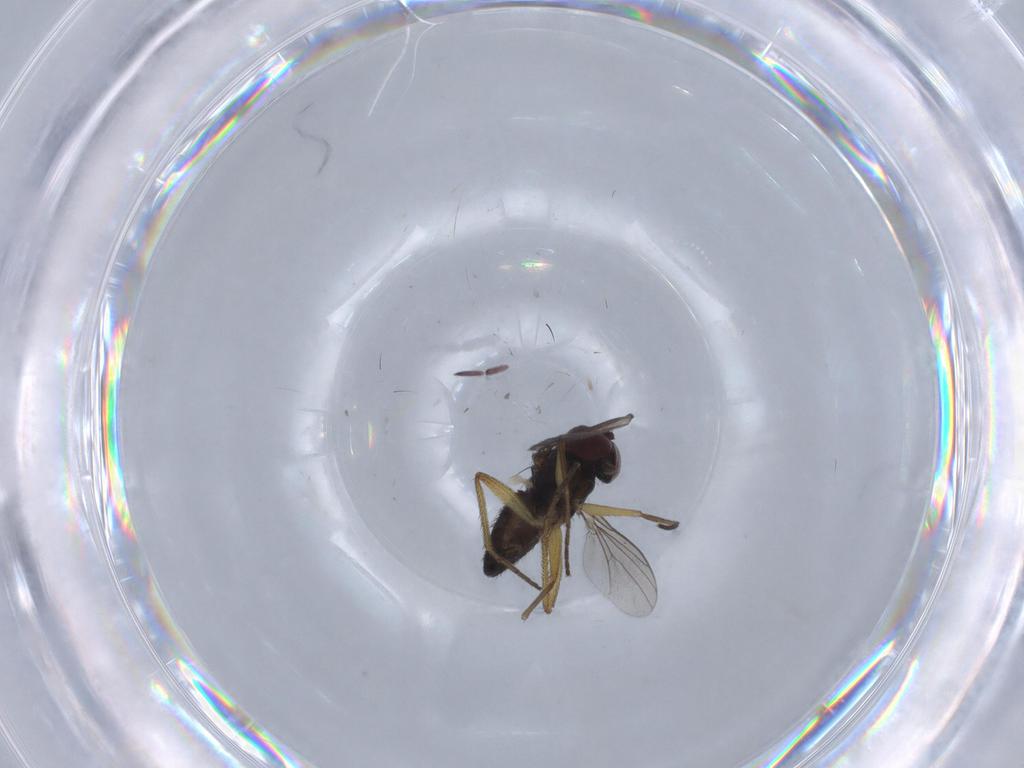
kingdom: Animalia
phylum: Arthropoda
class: Insecta
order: Diptera
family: Dolichopodidae
